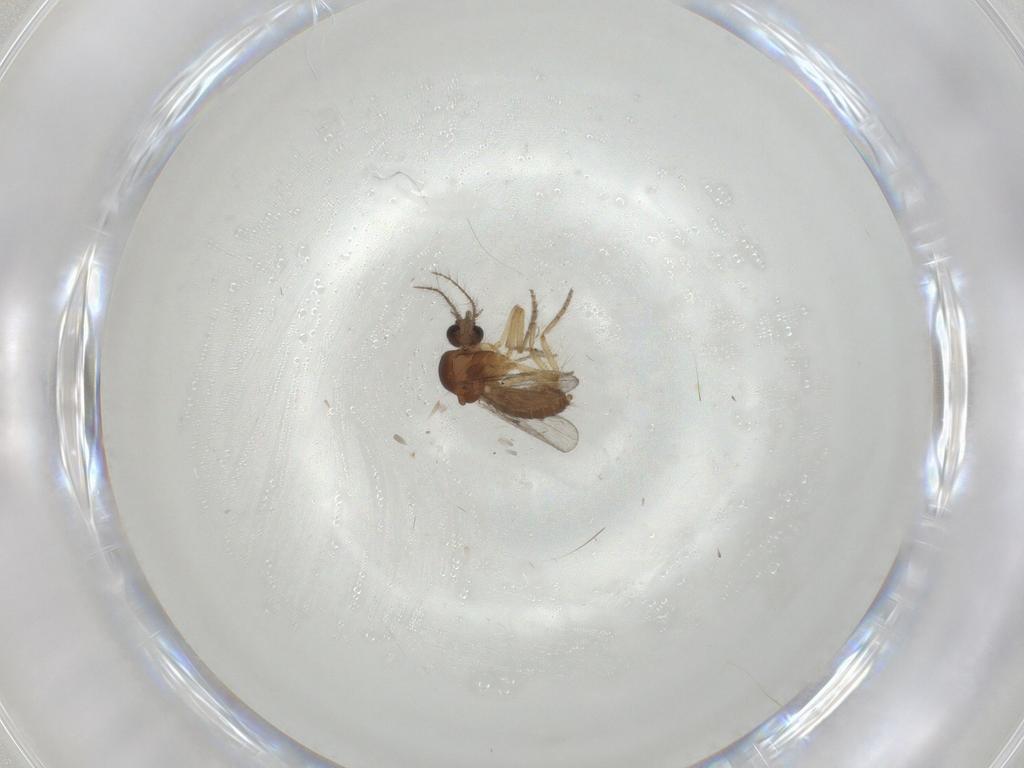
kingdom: Animalia
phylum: Arthropoda
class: Insecta
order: Diptera
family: Ceratopogonidae
